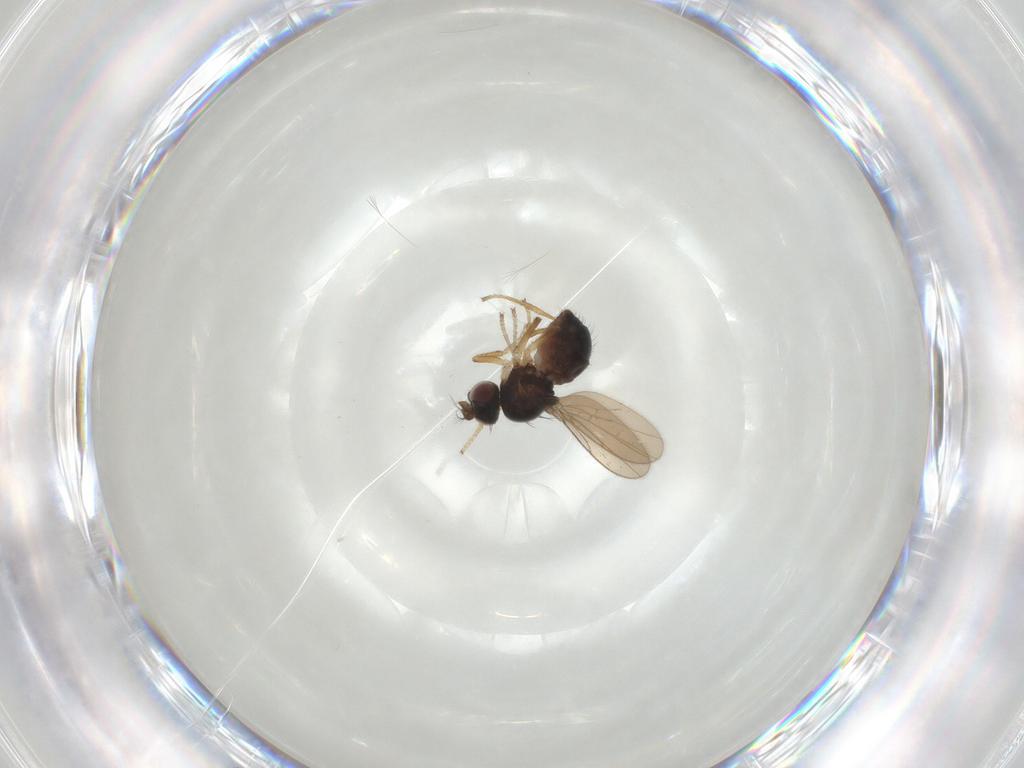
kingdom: Animalia
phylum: Arthropoda
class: Insecta
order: Diptera
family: Ephydridae
